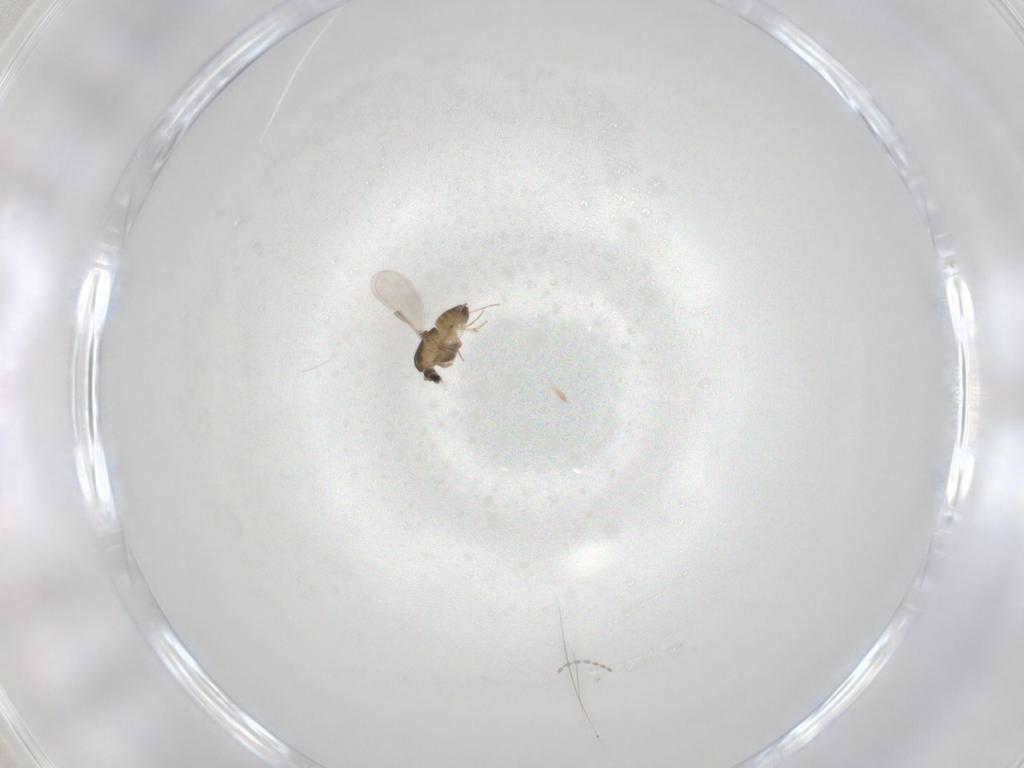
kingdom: Animalia
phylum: Arthropoda
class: Insecta
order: Diptera
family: Chironomidae
